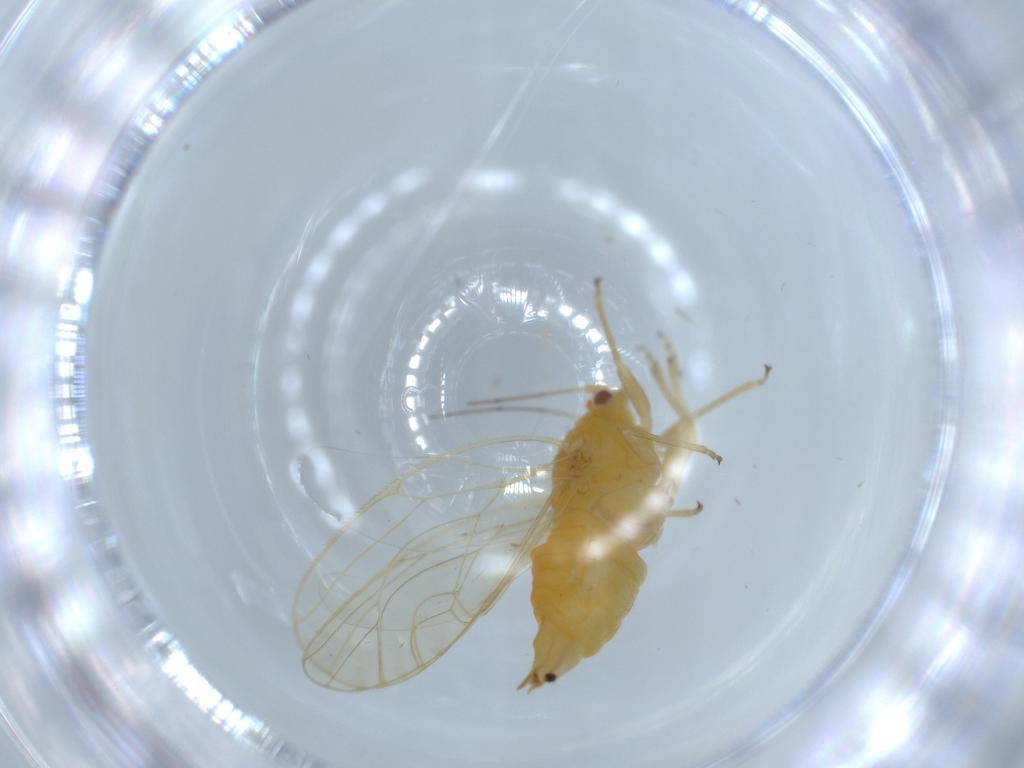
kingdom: Animalia
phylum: Arthropoda
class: Insecta
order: Hemiptera
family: Psyllidae
